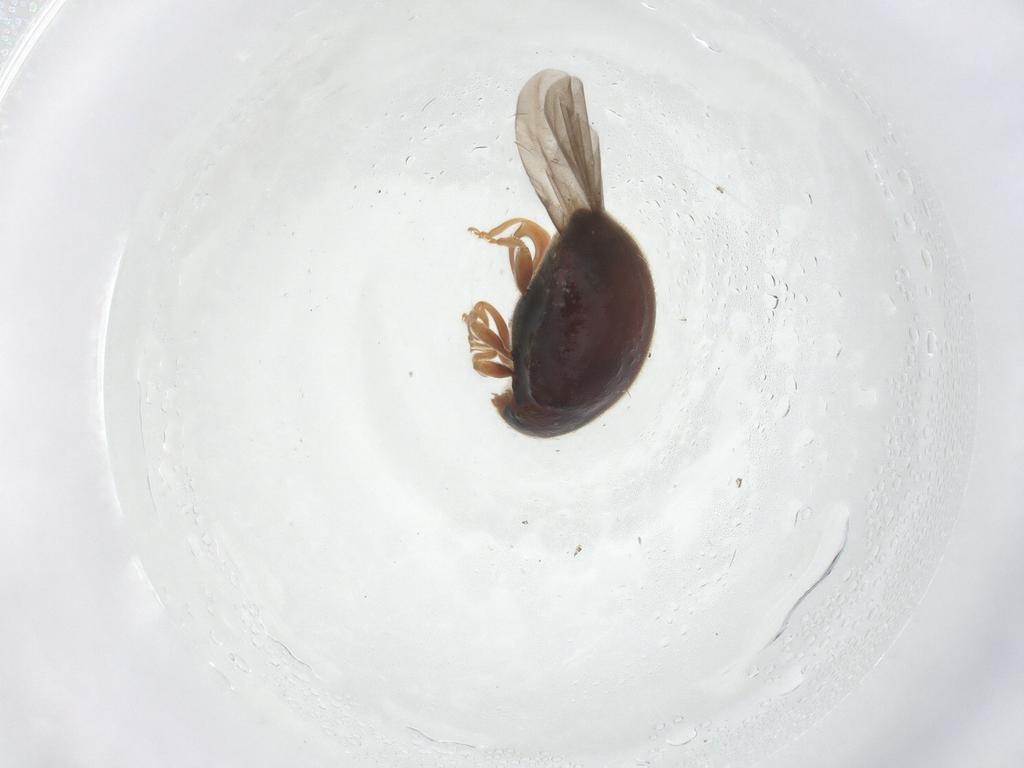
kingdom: Animalia
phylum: Arthropoda
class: Insecta
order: Coleoptera
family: Coccinellidae
